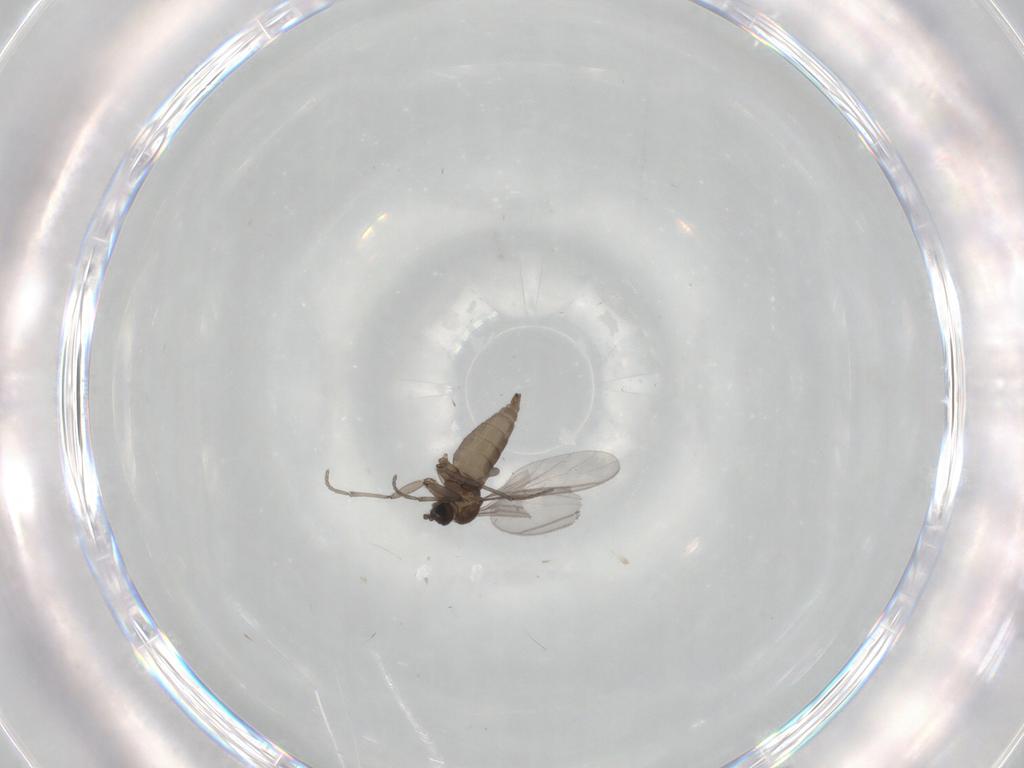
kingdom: Animalia
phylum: Arthropoda
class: Insecta
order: Diptera
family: Sciaridae
